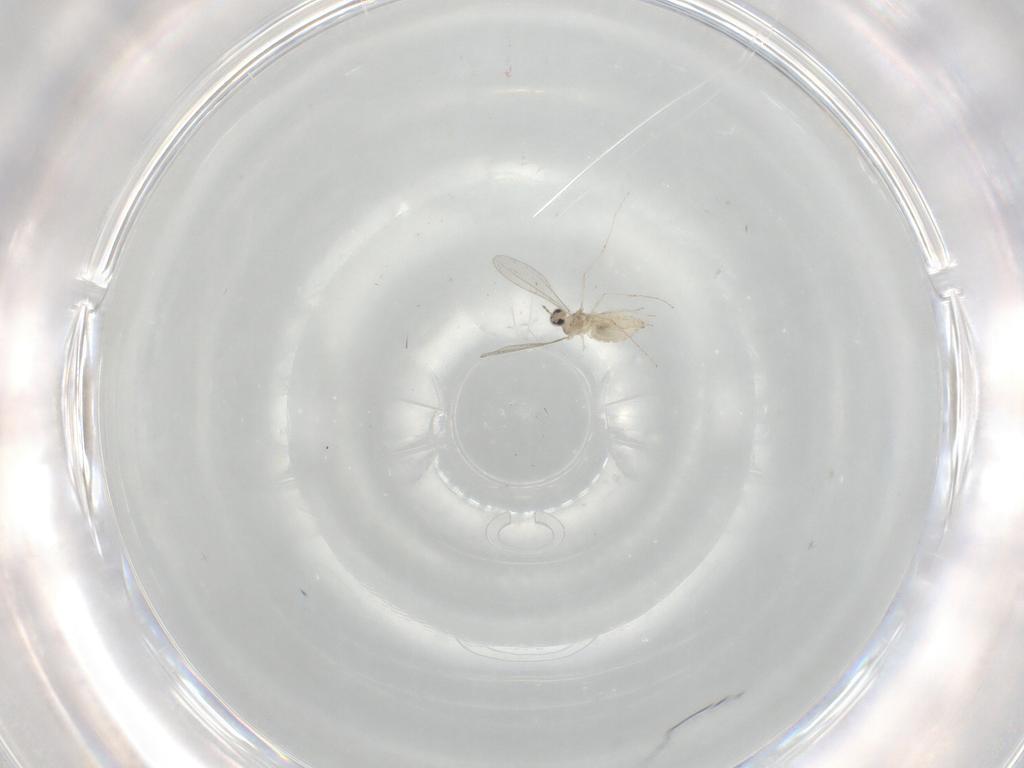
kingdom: Animalia
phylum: Arthropoda
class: Insecta
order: Diptera
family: Cecidomyiidae
